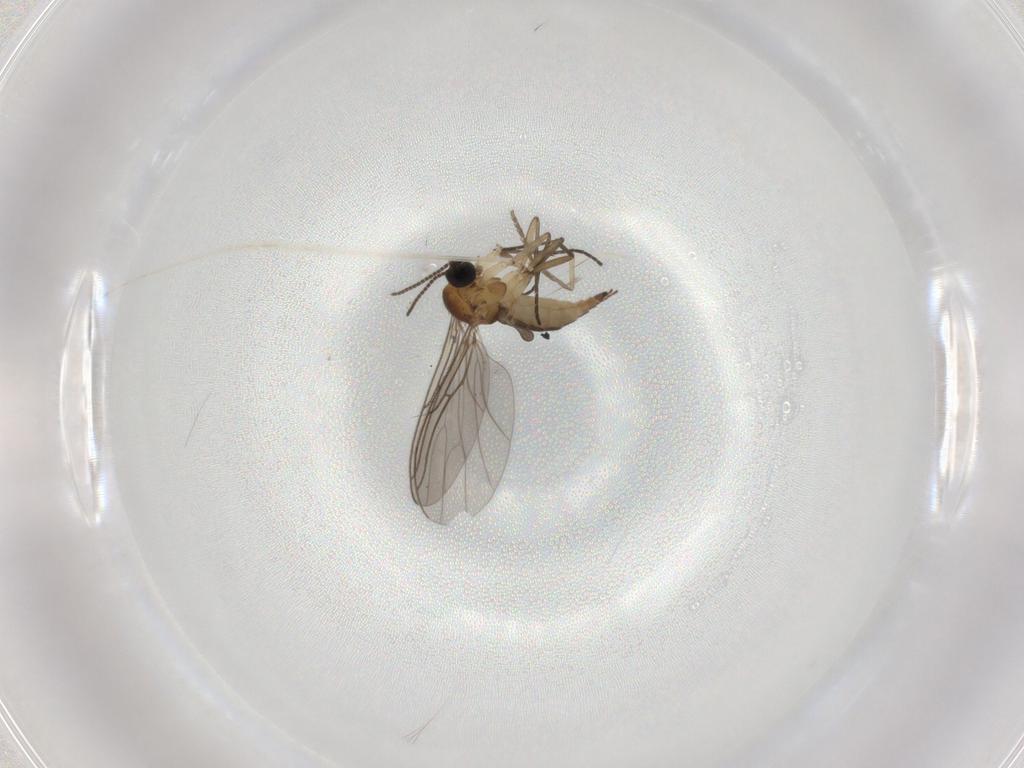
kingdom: Animalia
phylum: Arthropoda
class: Insecta
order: Diptera
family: Sciaridae
